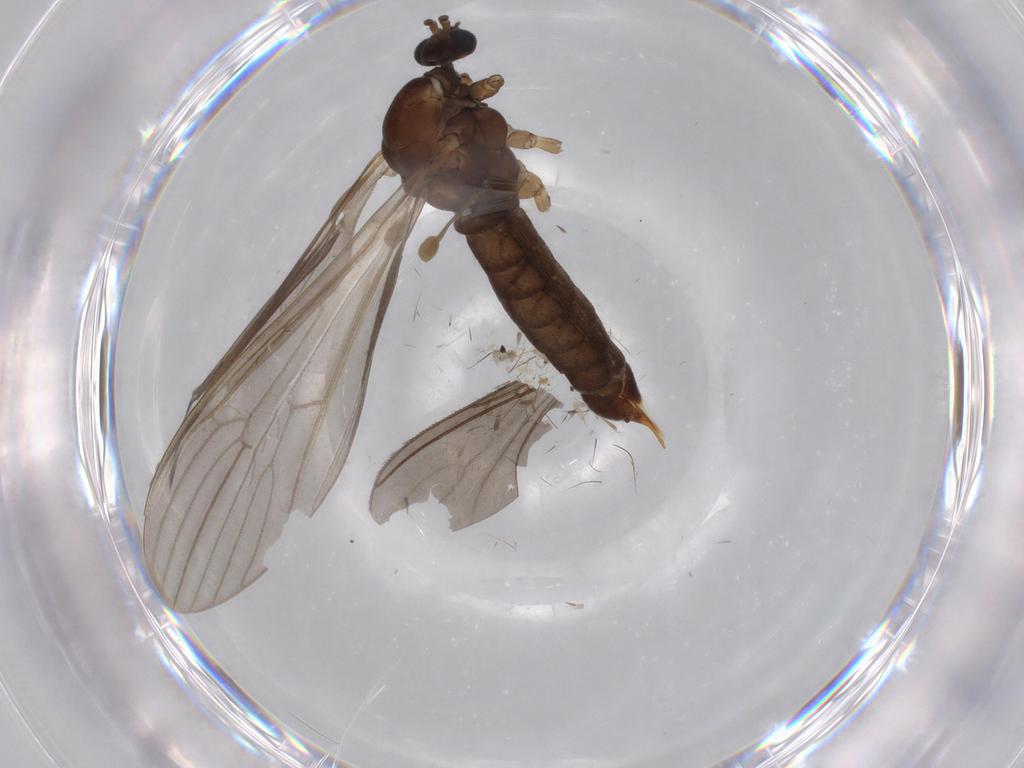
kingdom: Animalia
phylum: Arthropoda
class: Insecta
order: Diptera
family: Limoniidae
